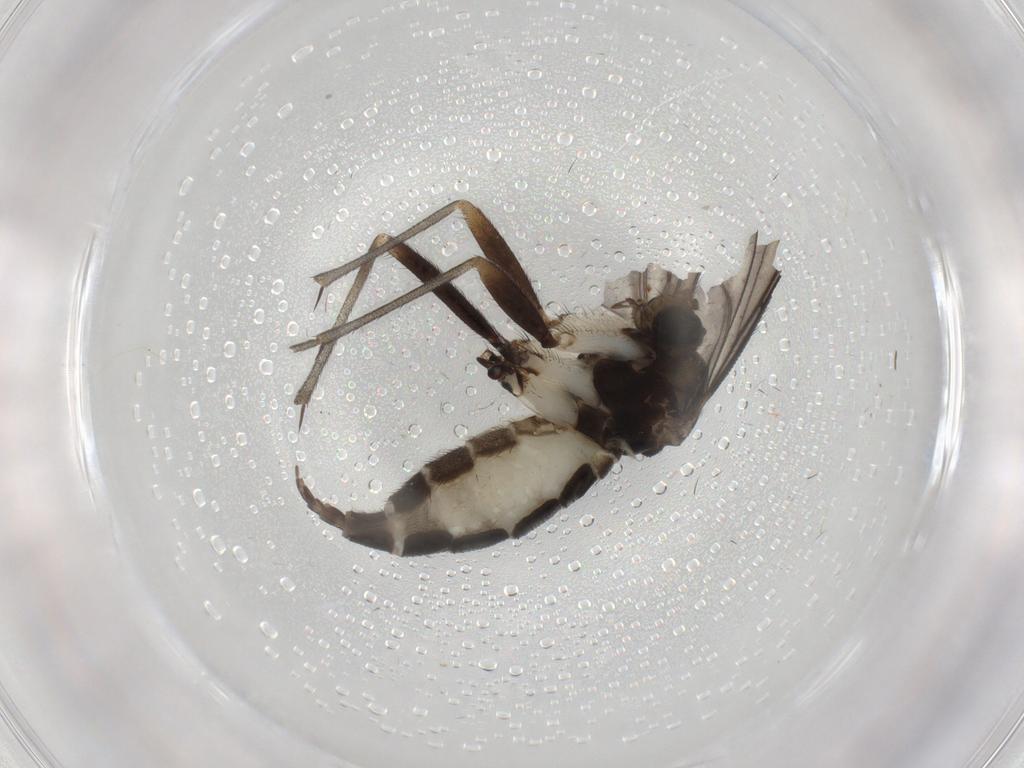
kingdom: Animalia
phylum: Arthropoda
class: Insecta
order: Diptera
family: Sciaridae
